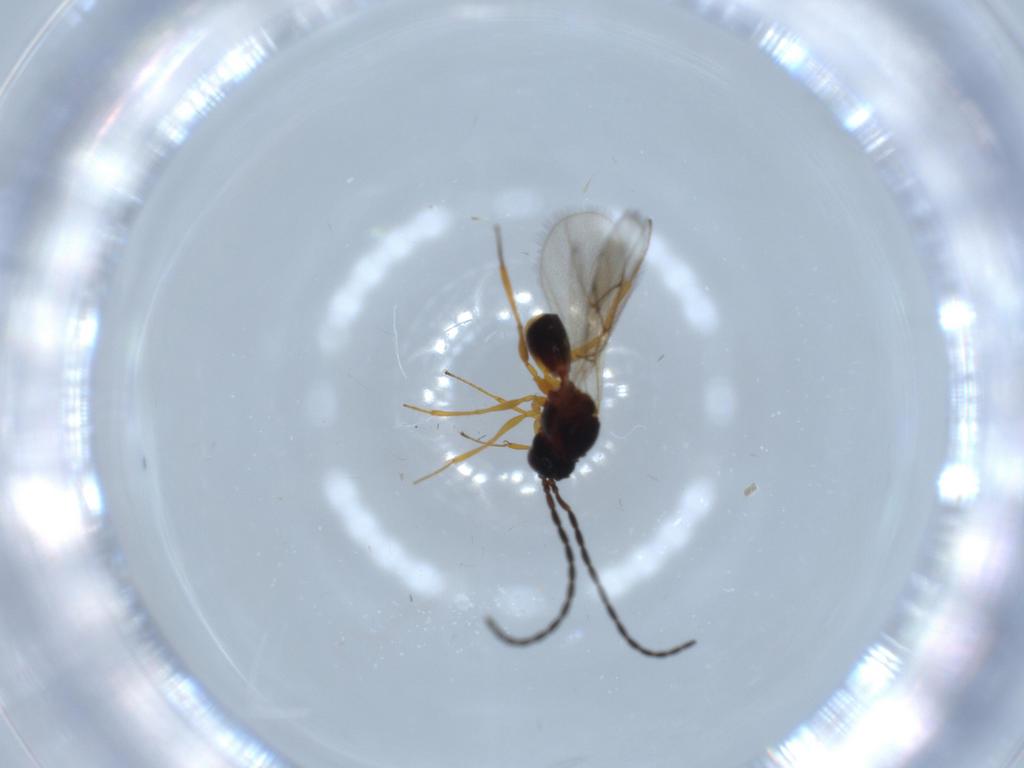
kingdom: Animalia
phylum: Arthropoda
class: Insecta
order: Hymenoptera
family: Figitidae
